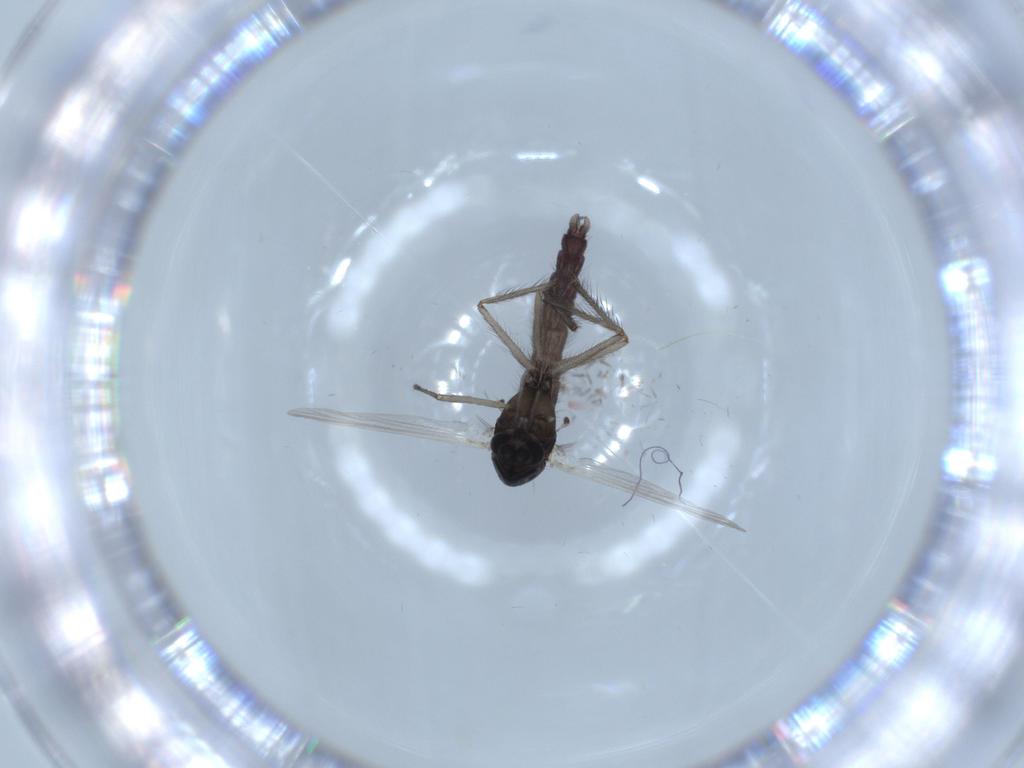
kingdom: Animalia
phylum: Arthropoda
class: Insecta
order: Diptera
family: Chironomidae
